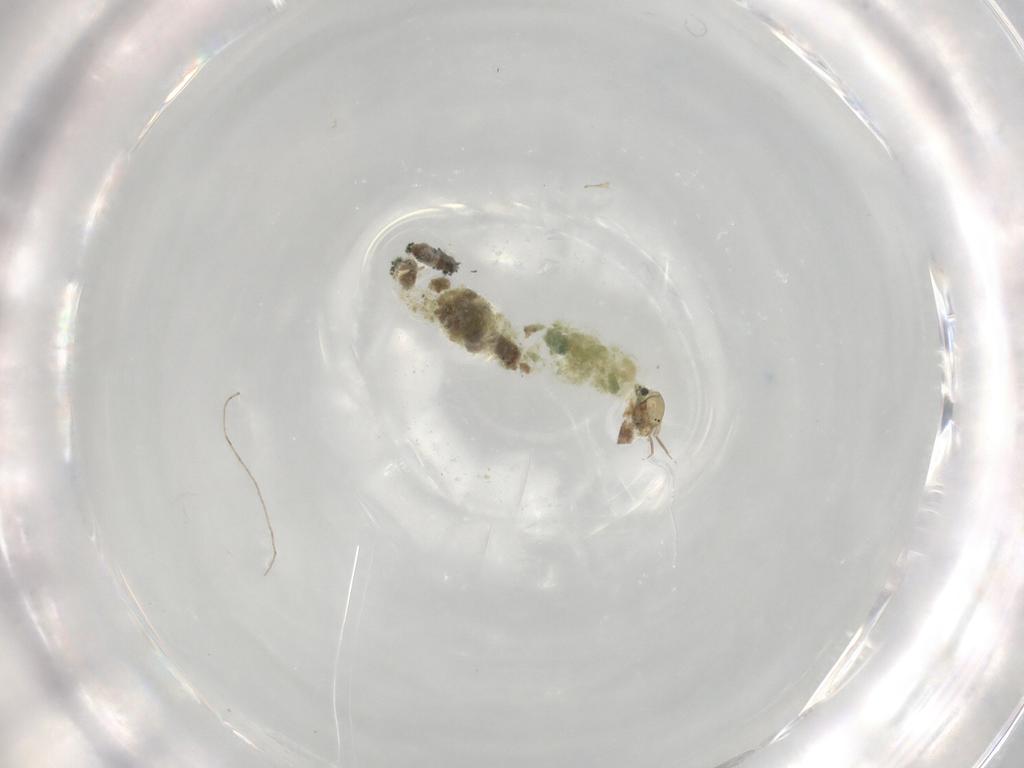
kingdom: Animalia
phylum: Arthropoda
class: Insecta
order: Diptera
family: Chironomidae
